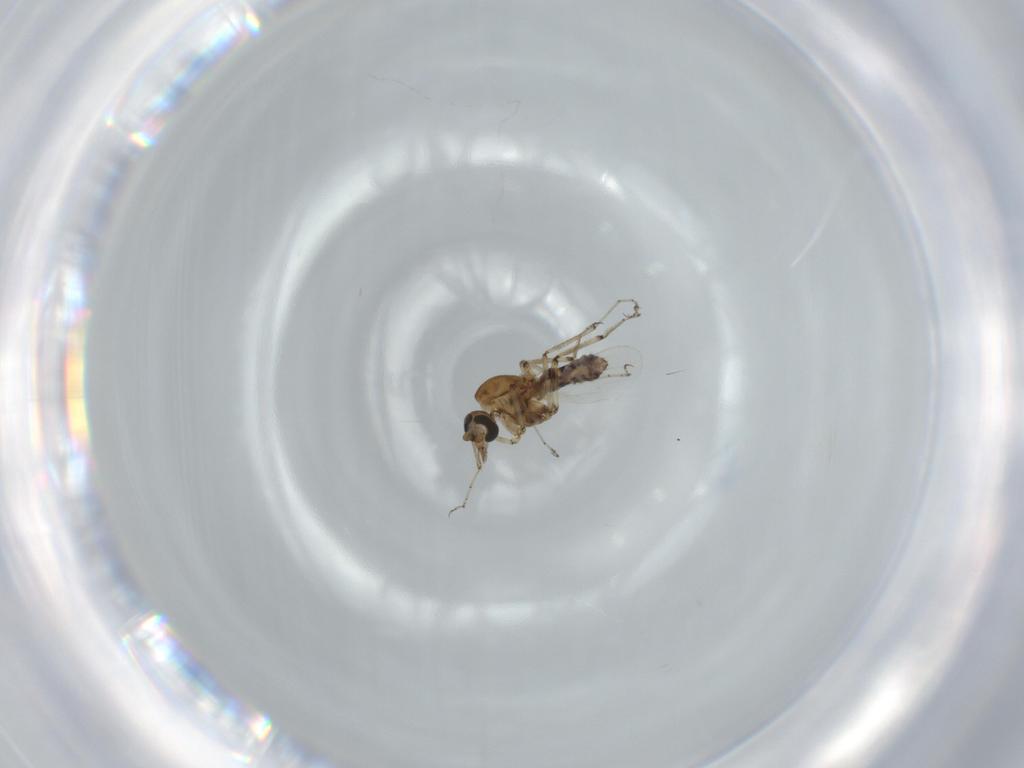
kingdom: Animalia
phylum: Arthropoda
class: Insecta
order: Diptera
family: Ceratopogonidae
